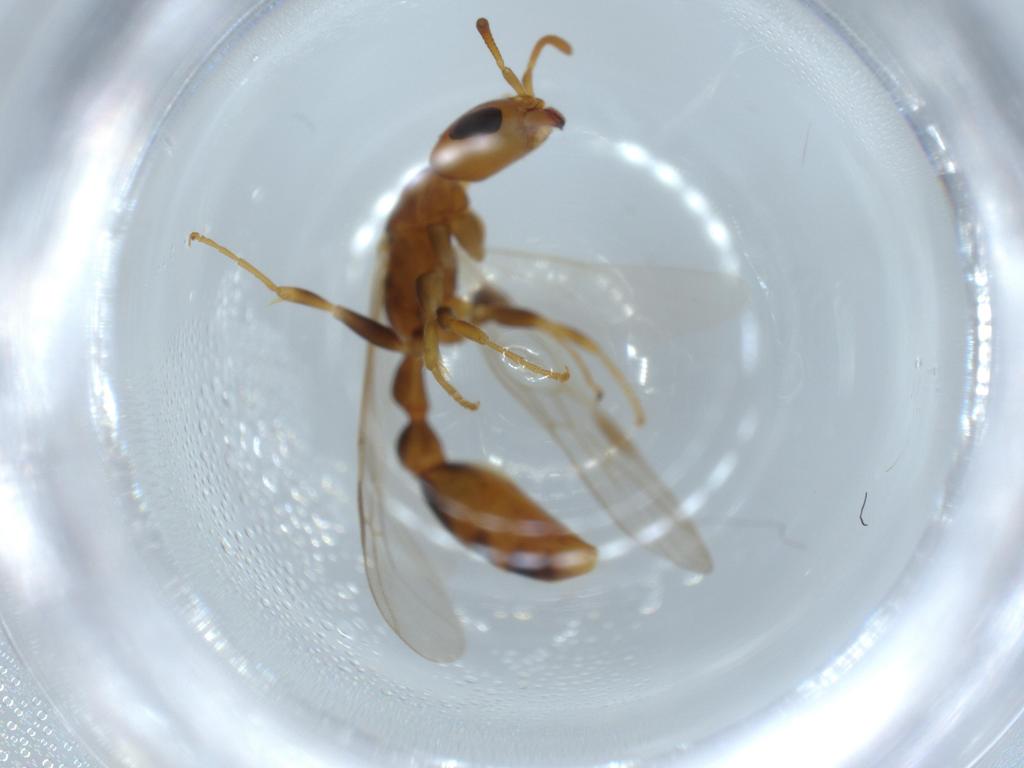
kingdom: Animalia
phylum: Arthropoda
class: Insecta
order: Hymenoptera
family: Formicidae
